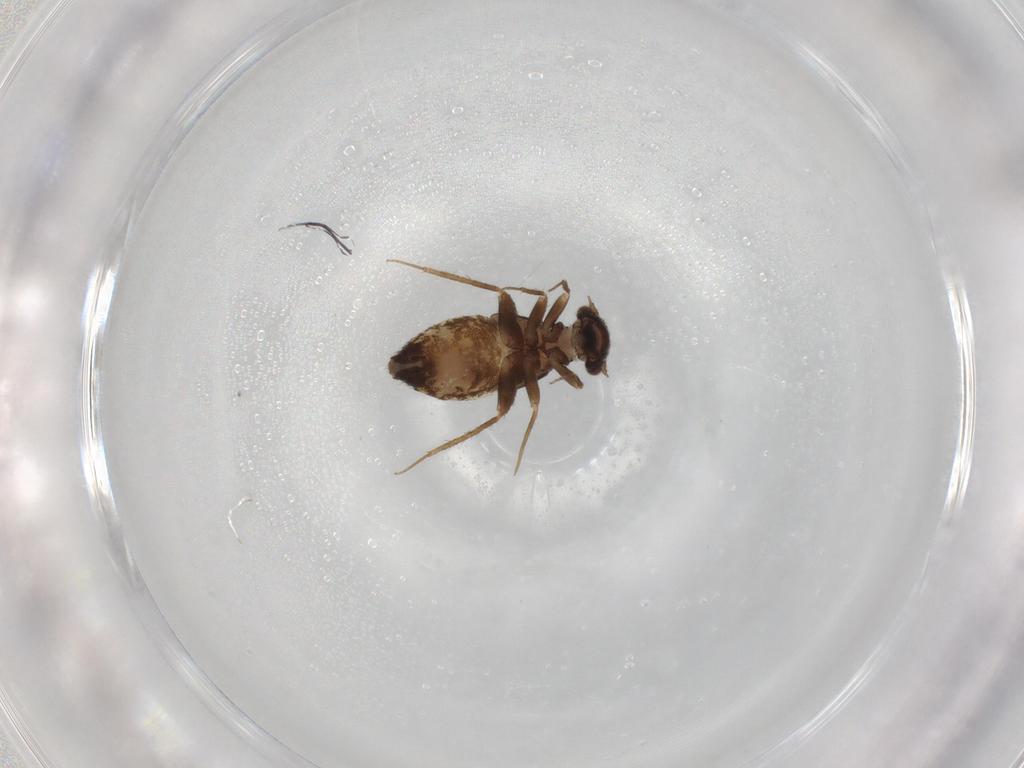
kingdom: Animalia
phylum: Arthropoda
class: Insecta
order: Psocodea
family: Lepidopsocidae
